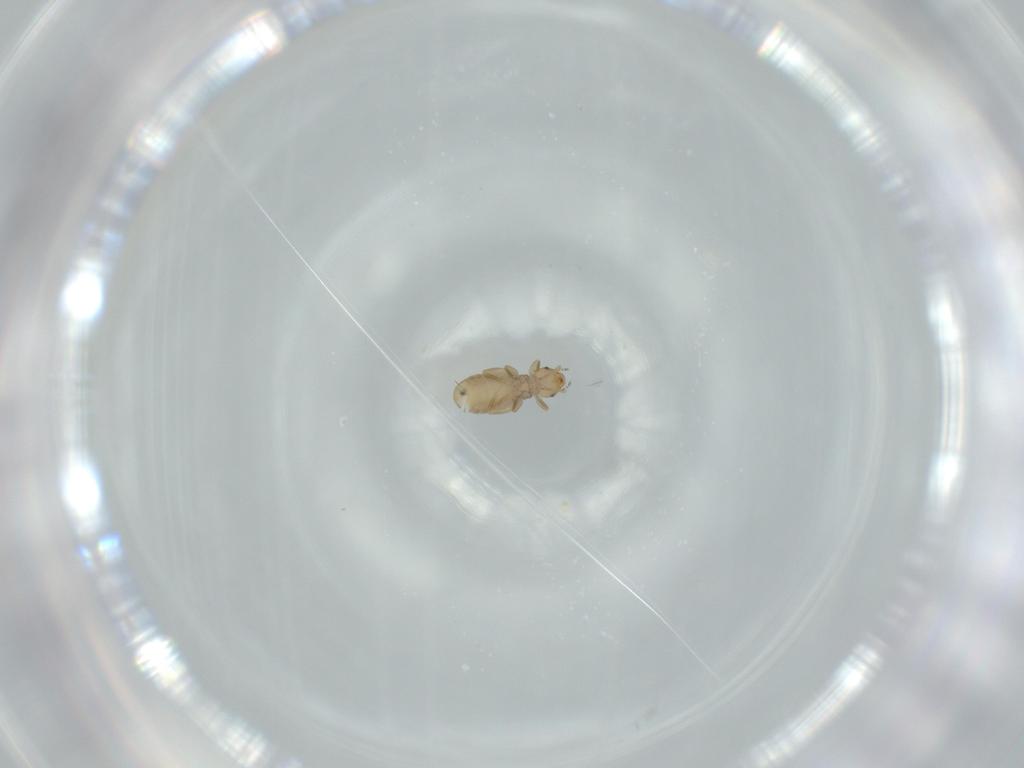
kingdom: Animalia
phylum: Arthropoda
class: Insecta
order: Psocodea
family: Liposcelididae
